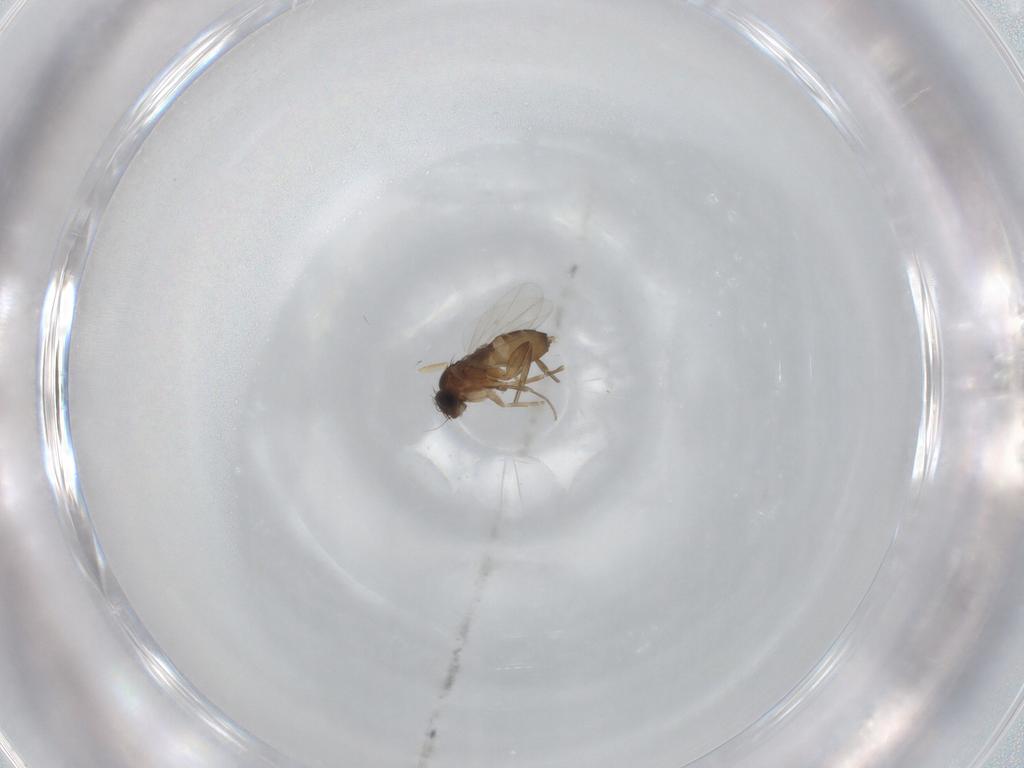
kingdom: Animalia
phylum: Arthropoda
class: Insecta
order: Diptera
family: Phoridae
